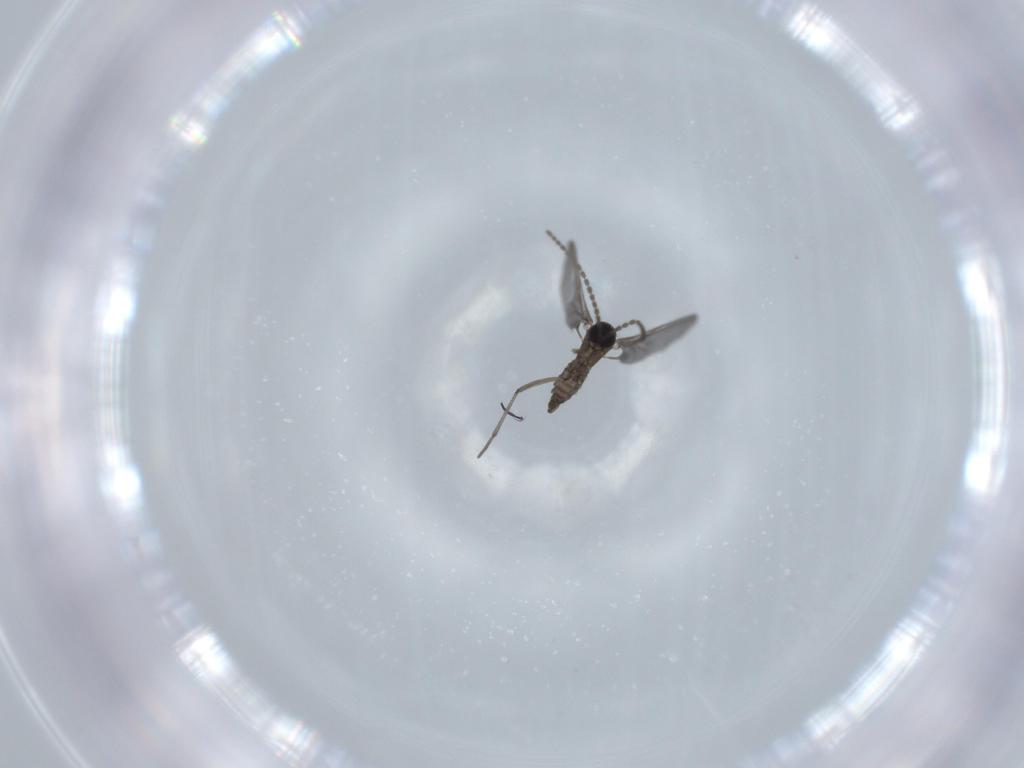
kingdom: Animalia
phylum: Arthropoda
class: Insecta
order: Diptera
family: Sciaridae
